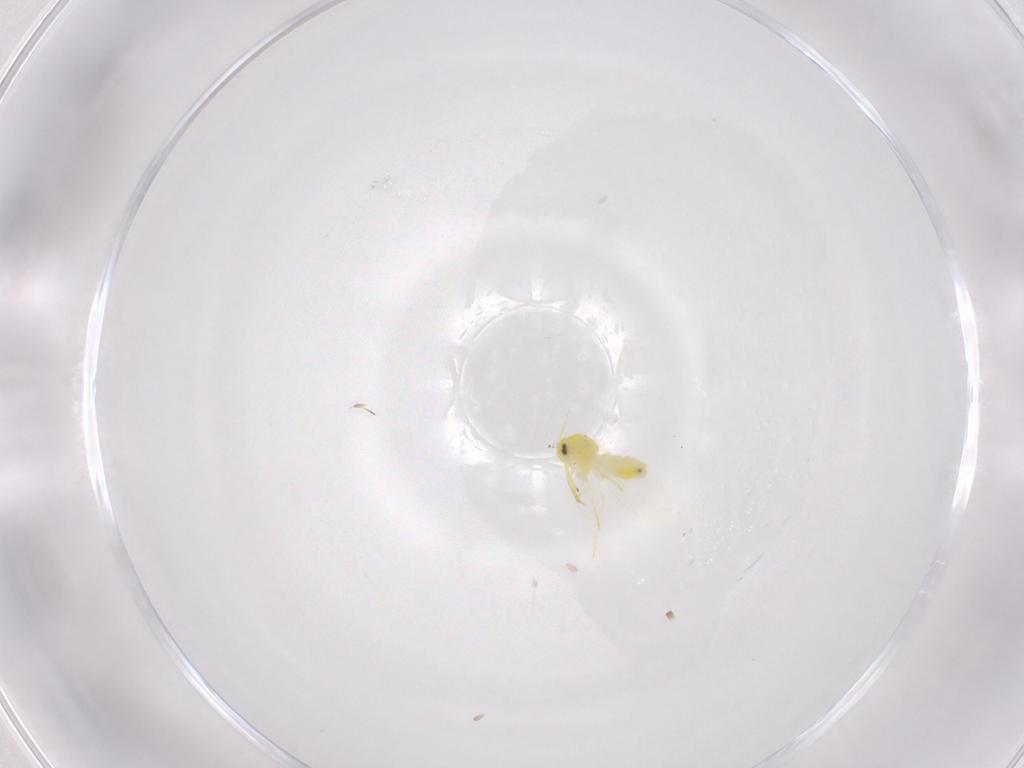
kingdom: Animalia
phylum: Arthropoda
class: Insecta
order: Hemiptera
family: Aleyrodidae
